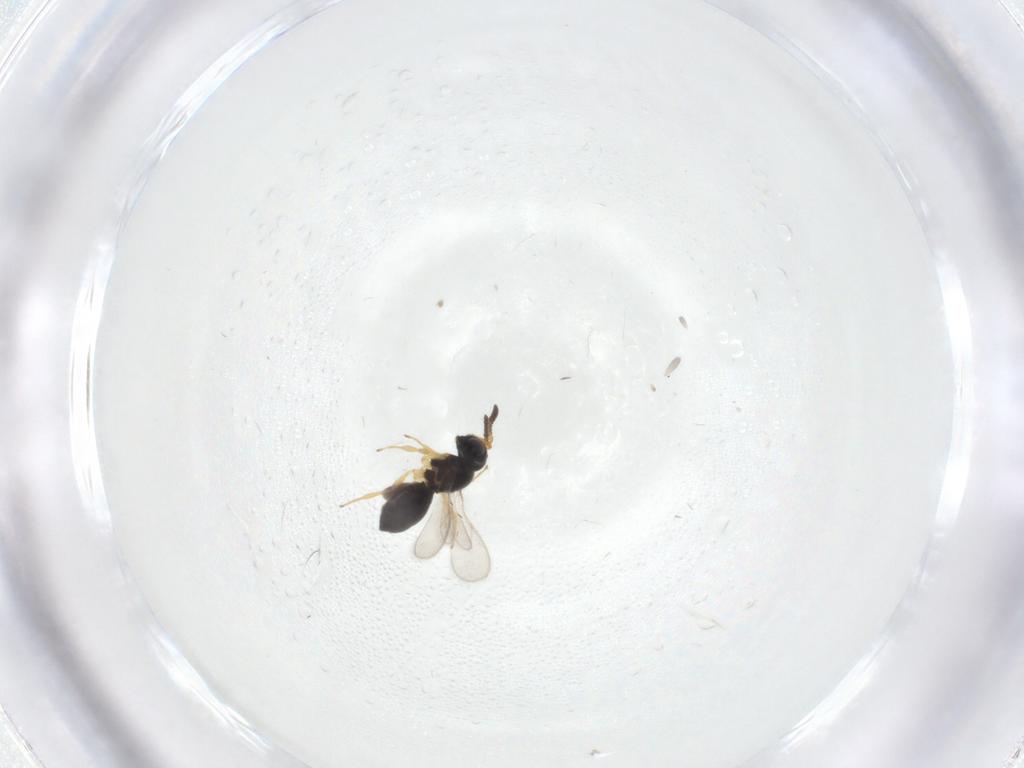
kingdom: Animalia
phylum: Arthropoda
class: Insecta
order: Hymenoptera
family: Scelionidae
